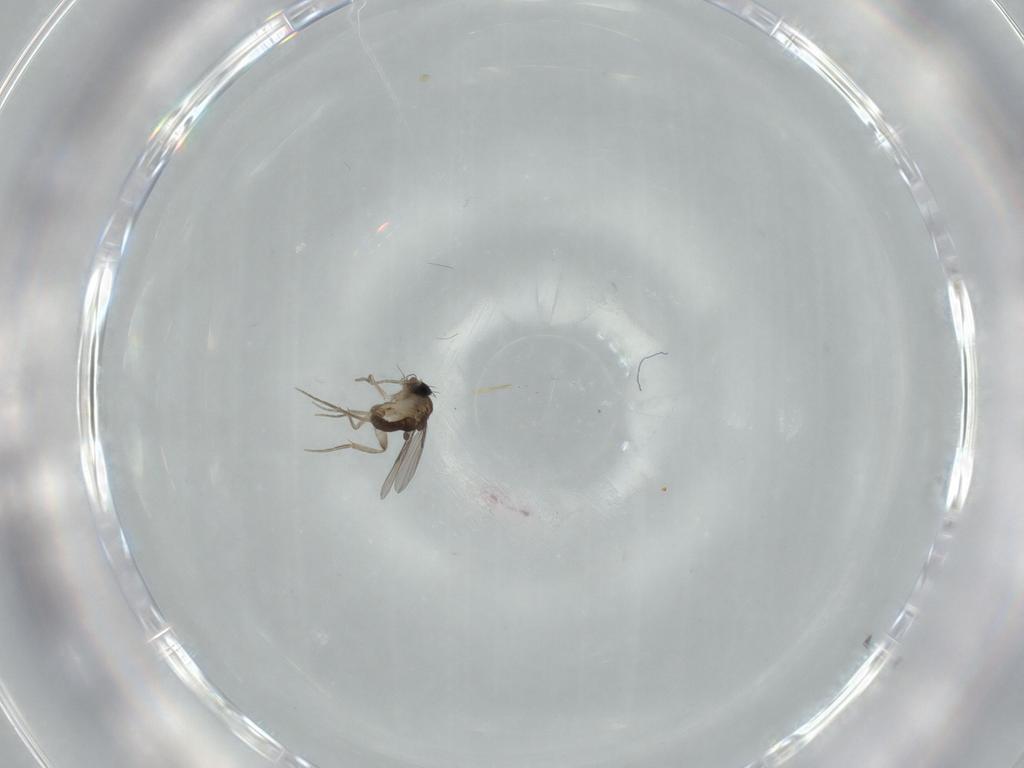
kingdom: Animalia
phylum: Arthropoda
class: Insecta
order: Diptera
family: Phoridae
